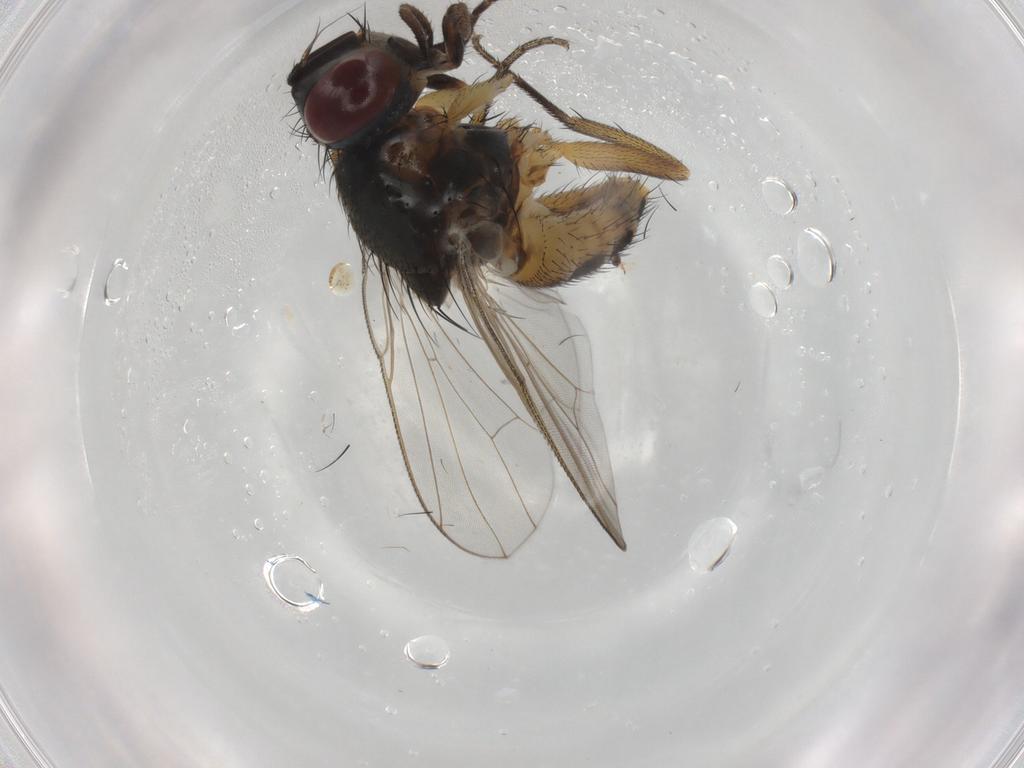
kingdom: Animalia
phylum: Arthropoda
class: Insecta
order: Diptera
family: Muscidae
